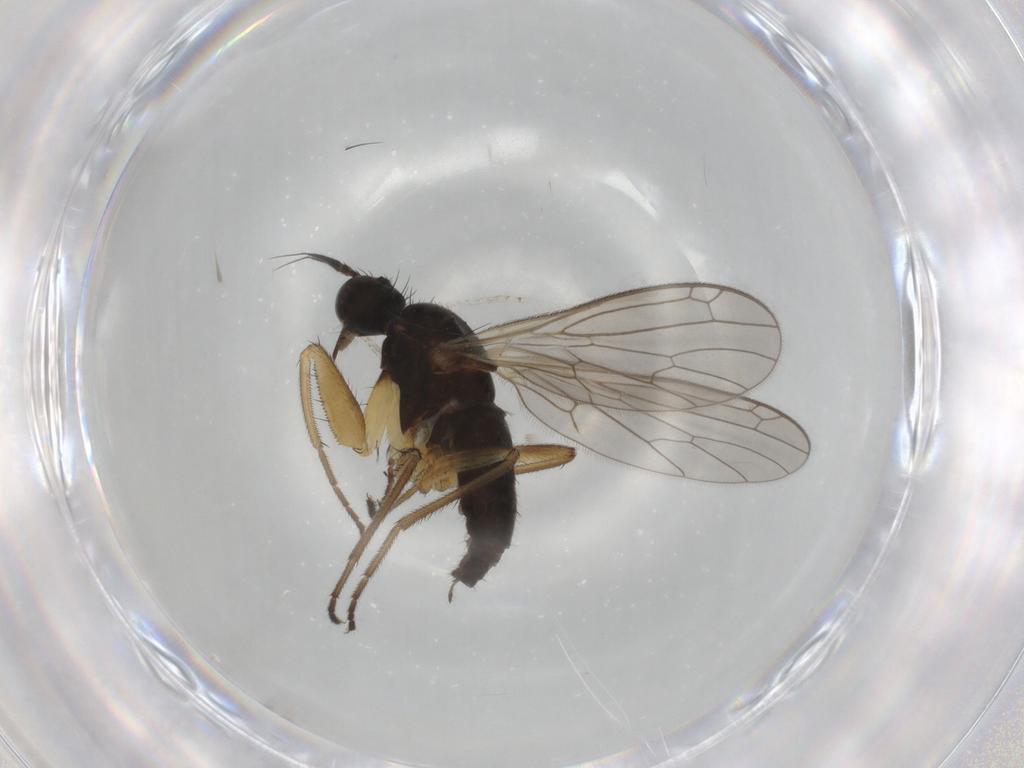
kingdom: Animalia
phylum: Arthropoda
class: Insecta
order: Diptera
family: Empididae
